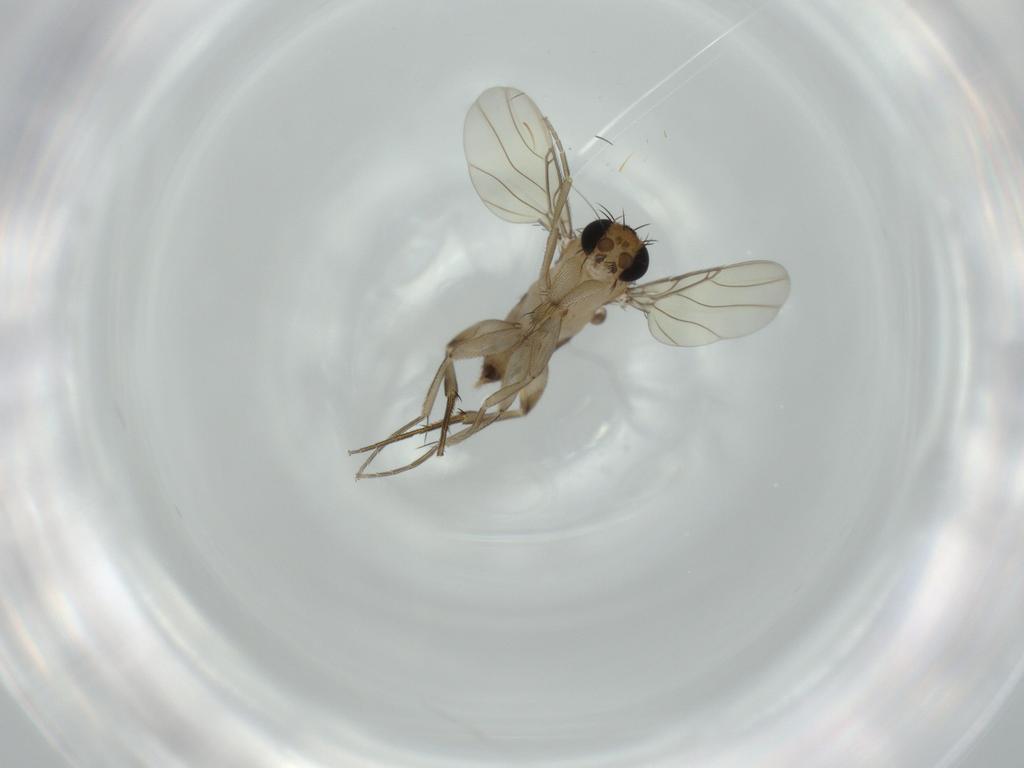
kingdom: Animalia
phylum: Arthropoda
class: Insecta
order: Diptera
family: Phoridae
